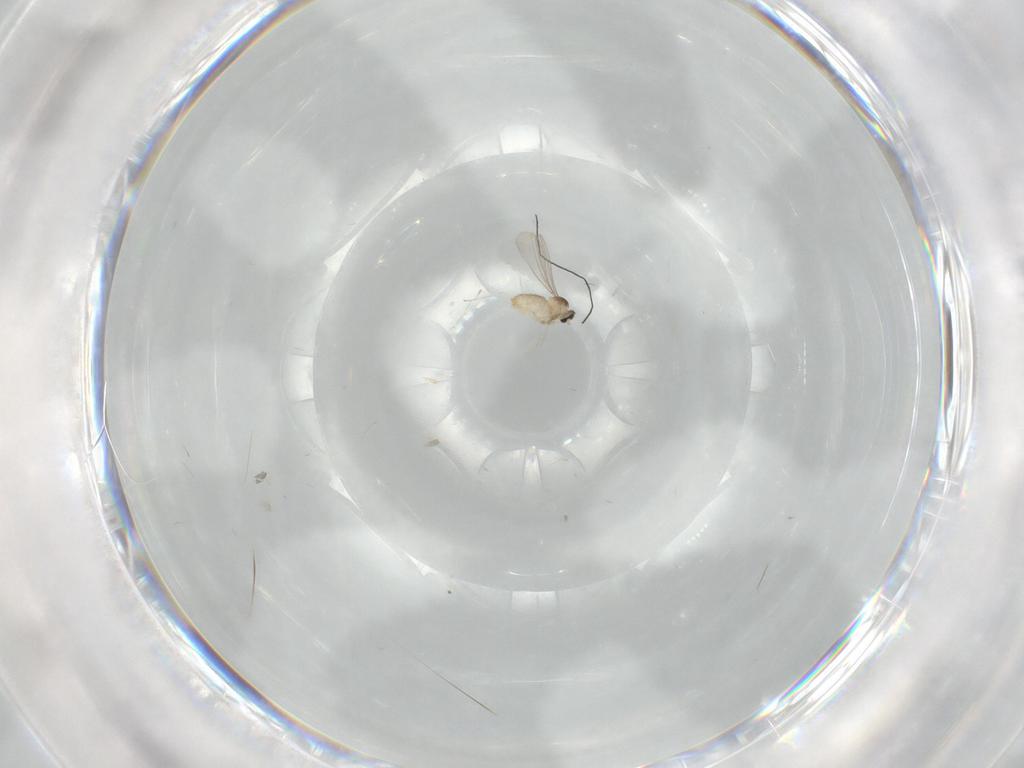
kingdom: Animalia
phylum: Arthropoda
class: Insecta
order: Diptera
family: Cecidomyiidae
